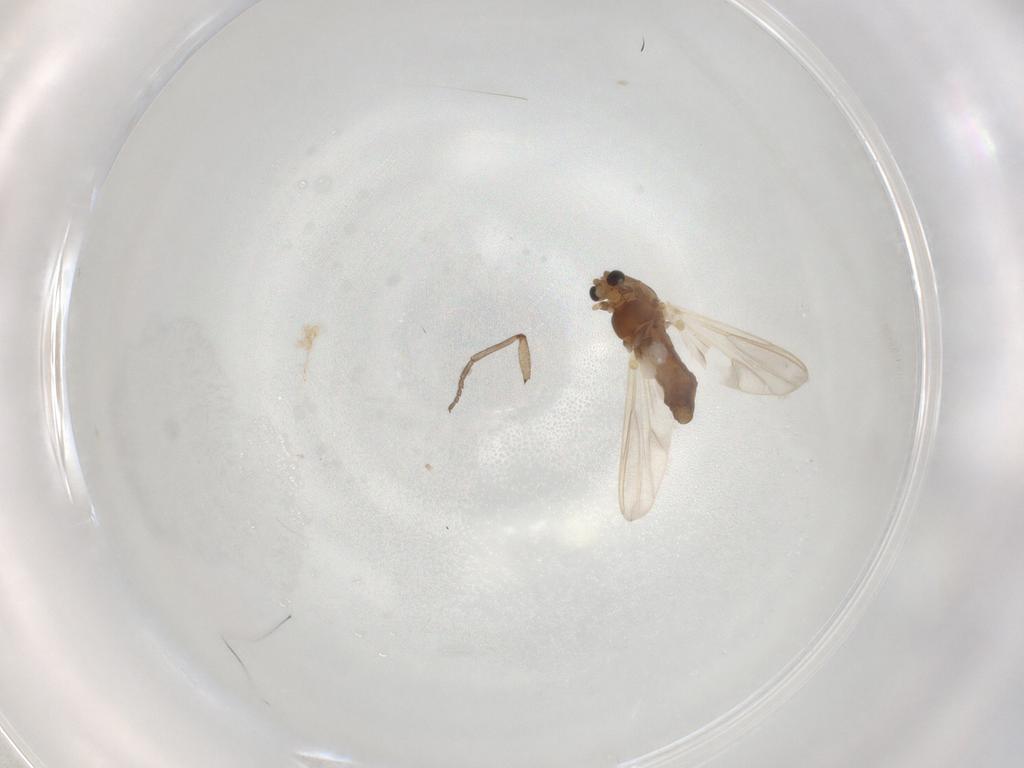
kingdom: Animalia
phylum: Arthropoda
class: Insecta
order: Diptera
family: Chironomidae
